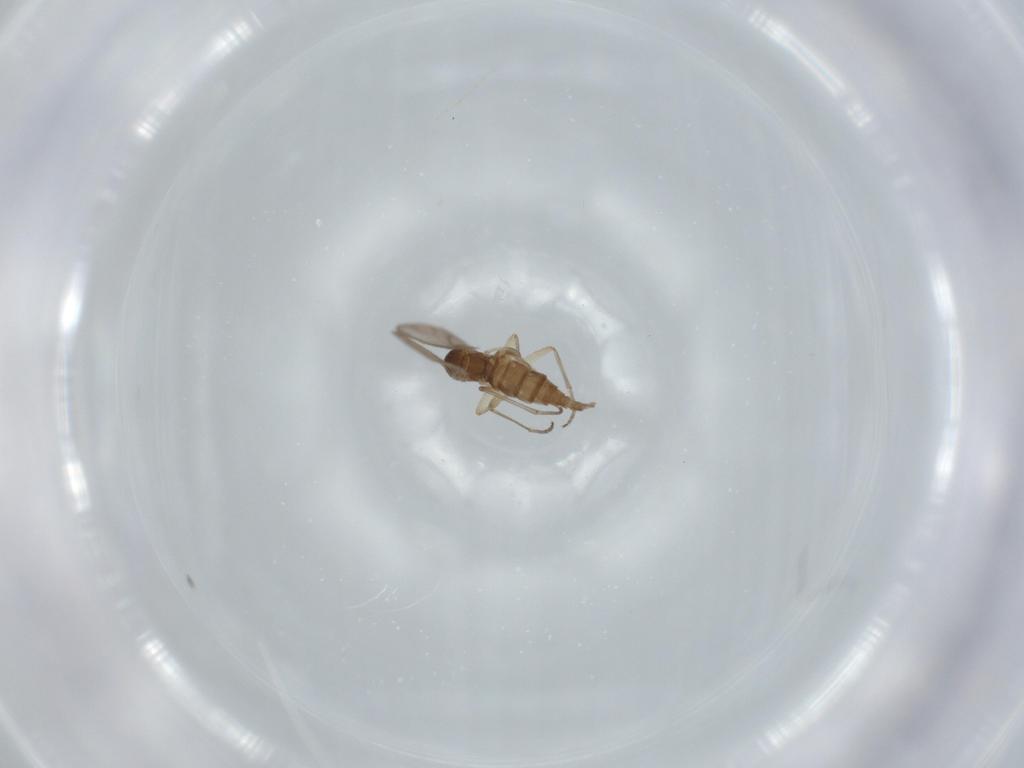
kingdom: Animalia
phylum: Arthropoda
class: Insecta
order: Diptera
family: Sciaridae
